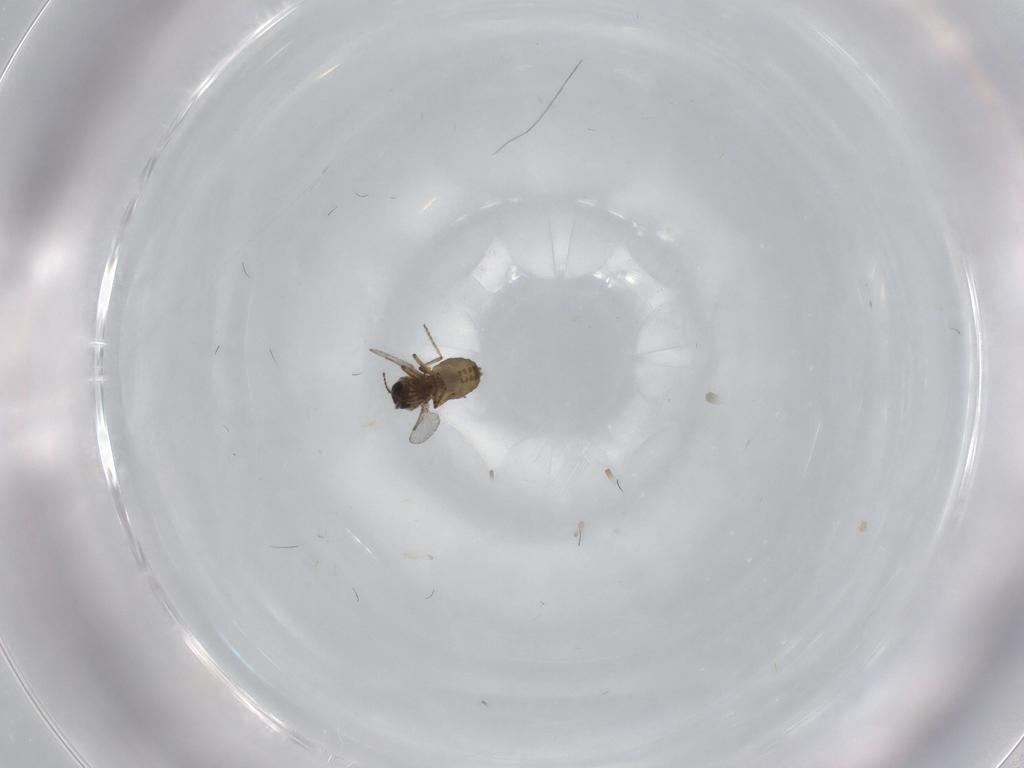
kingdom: Animalia
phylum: Arthropoda
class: Insecta
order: Diptera
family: Ceratopogonidae
